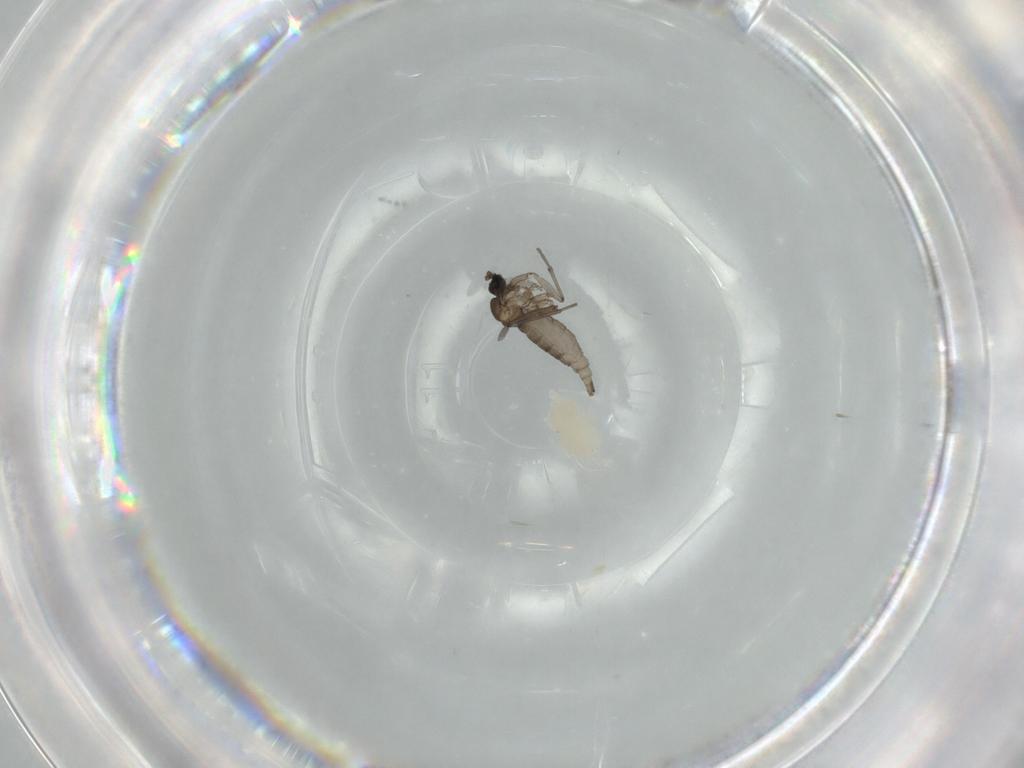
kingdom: Animalia
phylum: Arthropoda
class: Insecta
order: Diptera
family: Sciaridae
